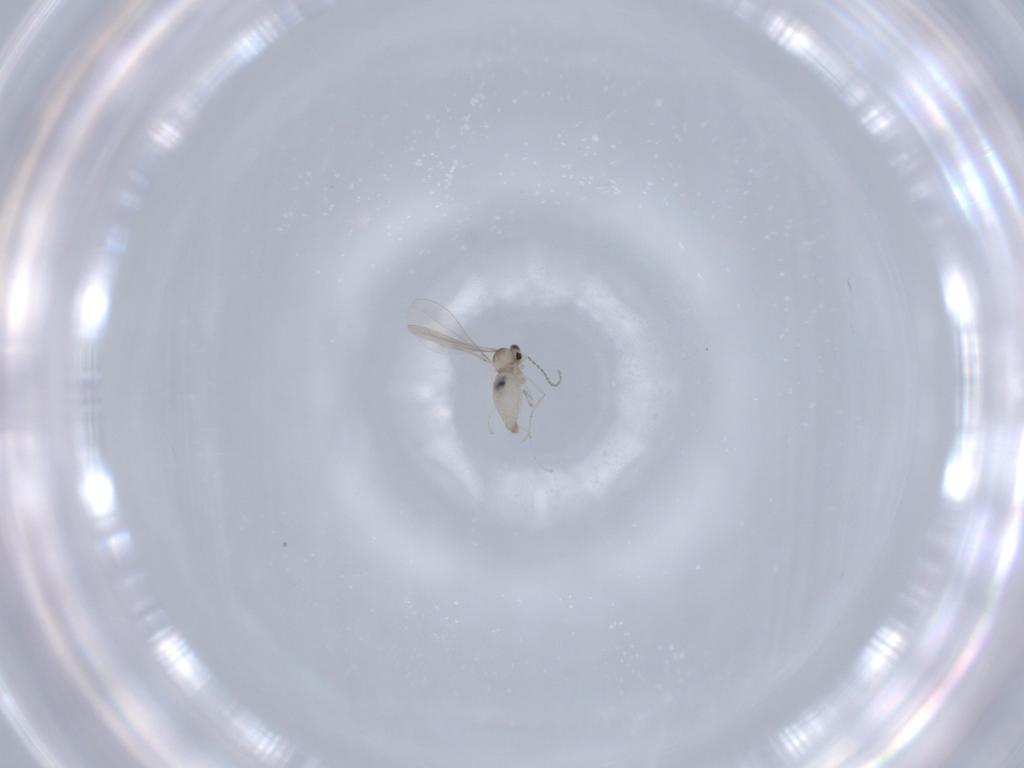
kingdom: Animalia
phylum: Arthropoda
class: Insecta
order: Diptera
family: Cecidomyiidae
